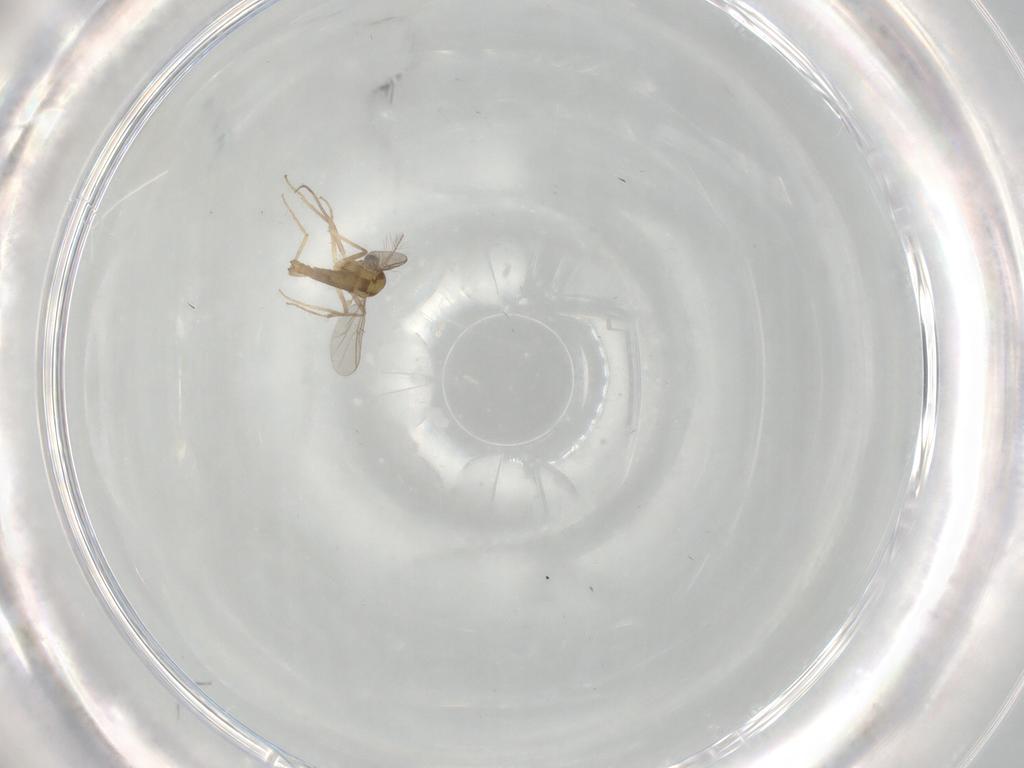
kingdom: Animalia
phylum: Arthropoda
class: Insecta
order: Diptera
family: Chironomidae
